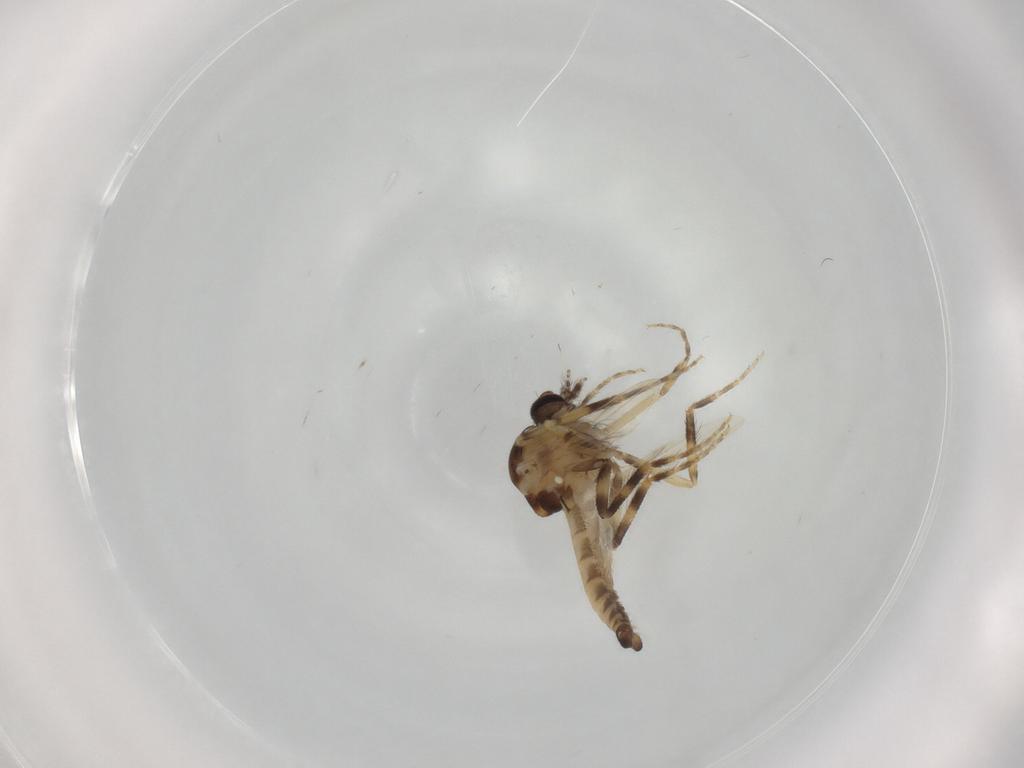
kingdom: Animalia
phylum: Arthropoda
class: Insecta
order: Diptera
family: Ceratopogonidae
